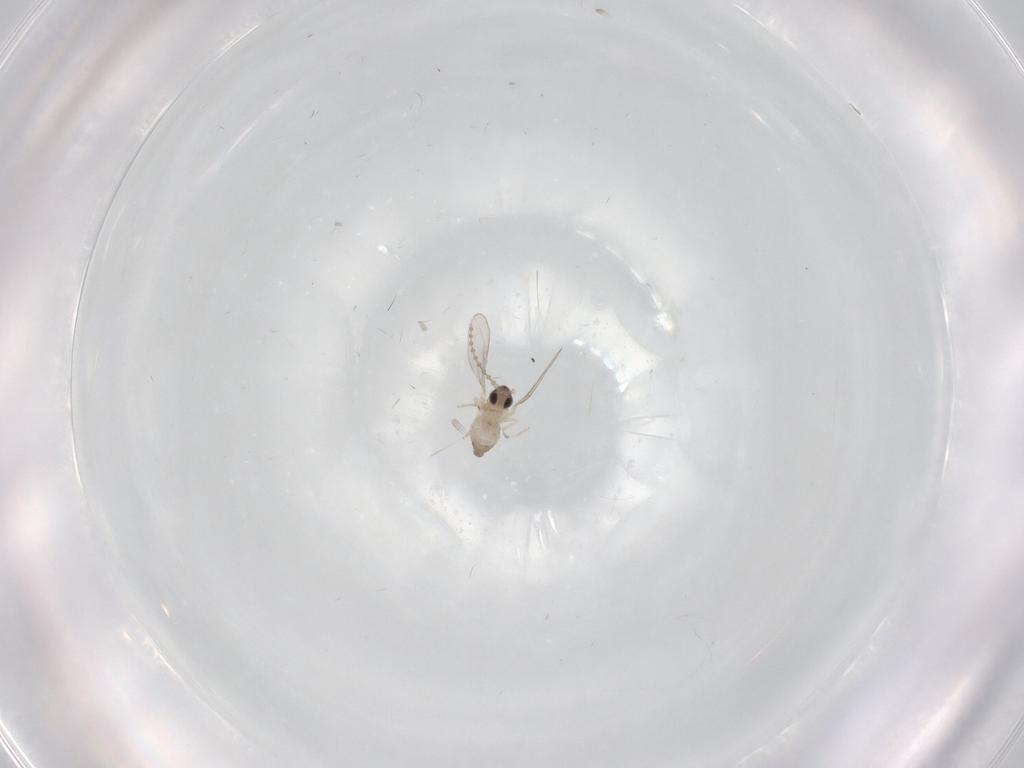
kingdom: Animalia
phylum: Arthropoda
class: Insecta
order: Diptera
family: Cecidomyiidae
